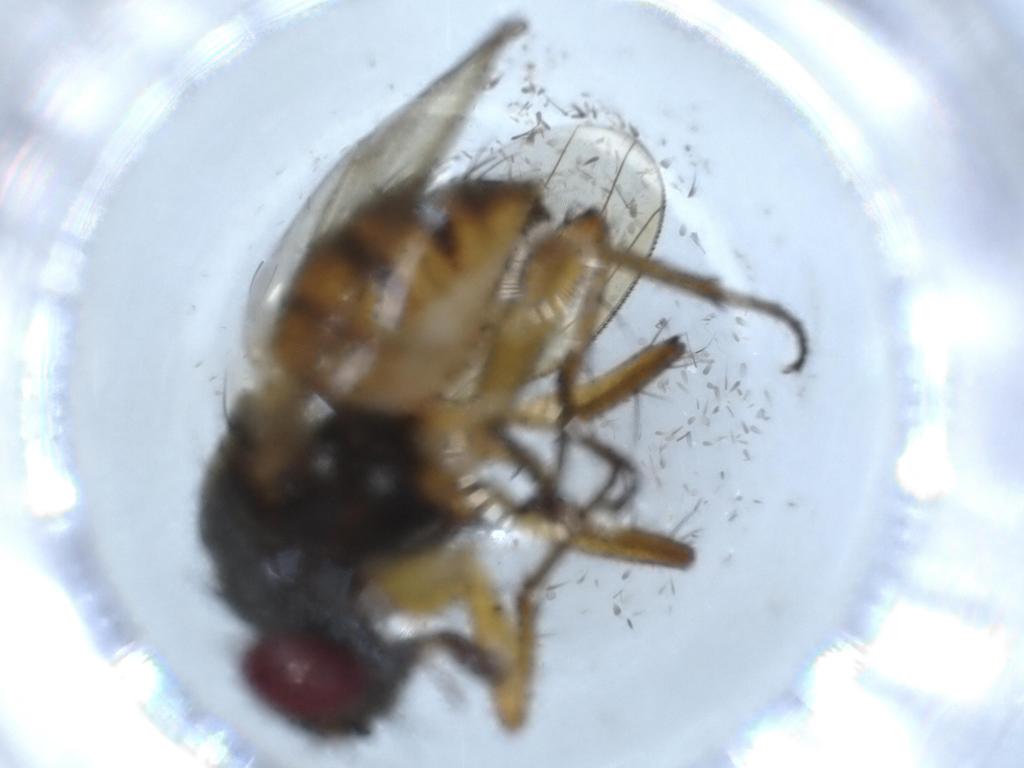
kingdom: Animalia
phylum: Arthropoda
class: Insecta
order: Diptera
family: Muscidae
